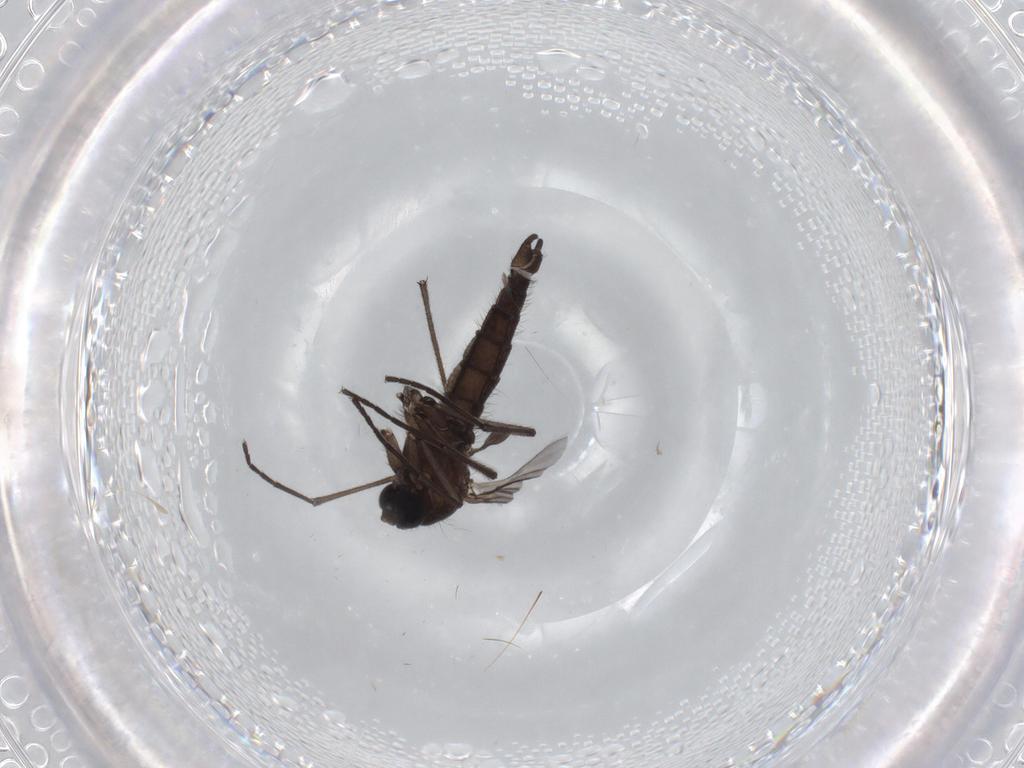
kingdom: Animalia
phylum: Arthropoda
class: Insecta
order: Diptera
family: Sciaridae
